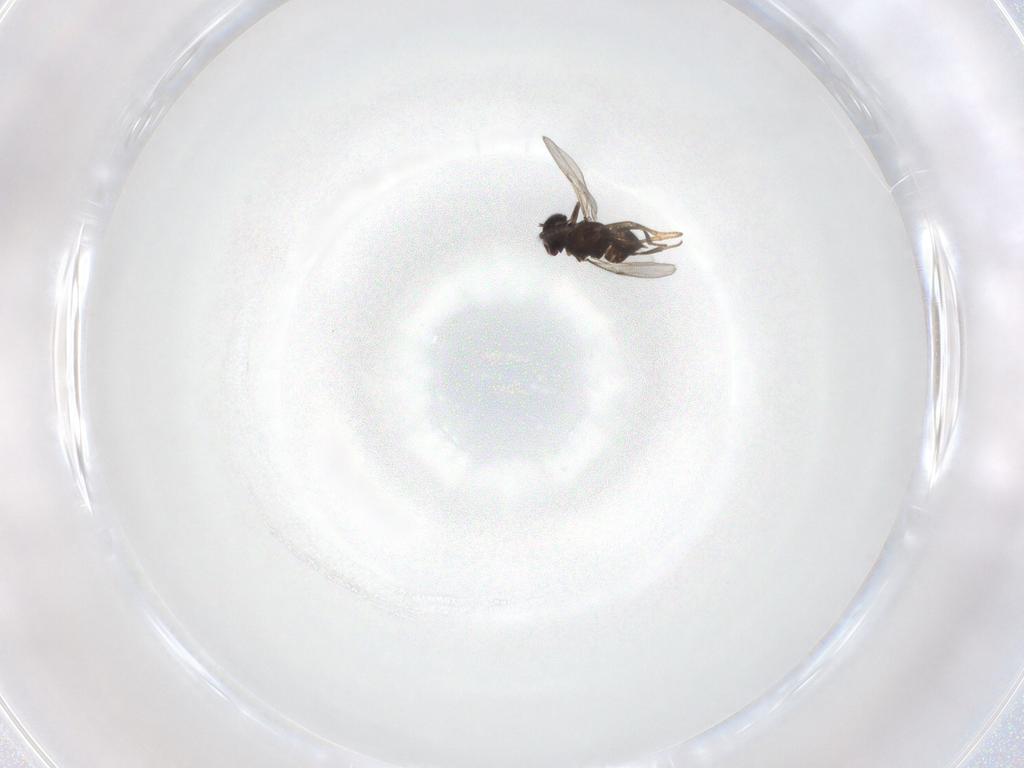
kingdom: Animalia
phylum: Arthropoda
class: Insecta
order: Hymenoptera
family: Encyrtidae
